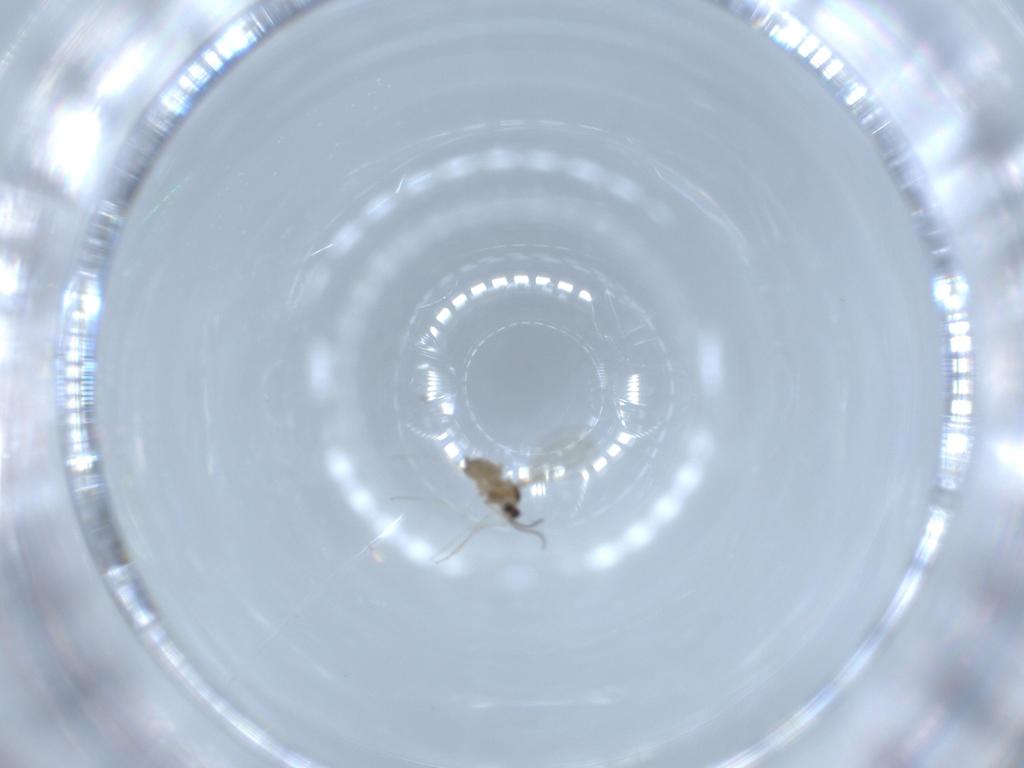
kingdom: Animalia
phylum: Arthropoda
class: Insecta
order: Diptera
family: Cecidomyiidae
